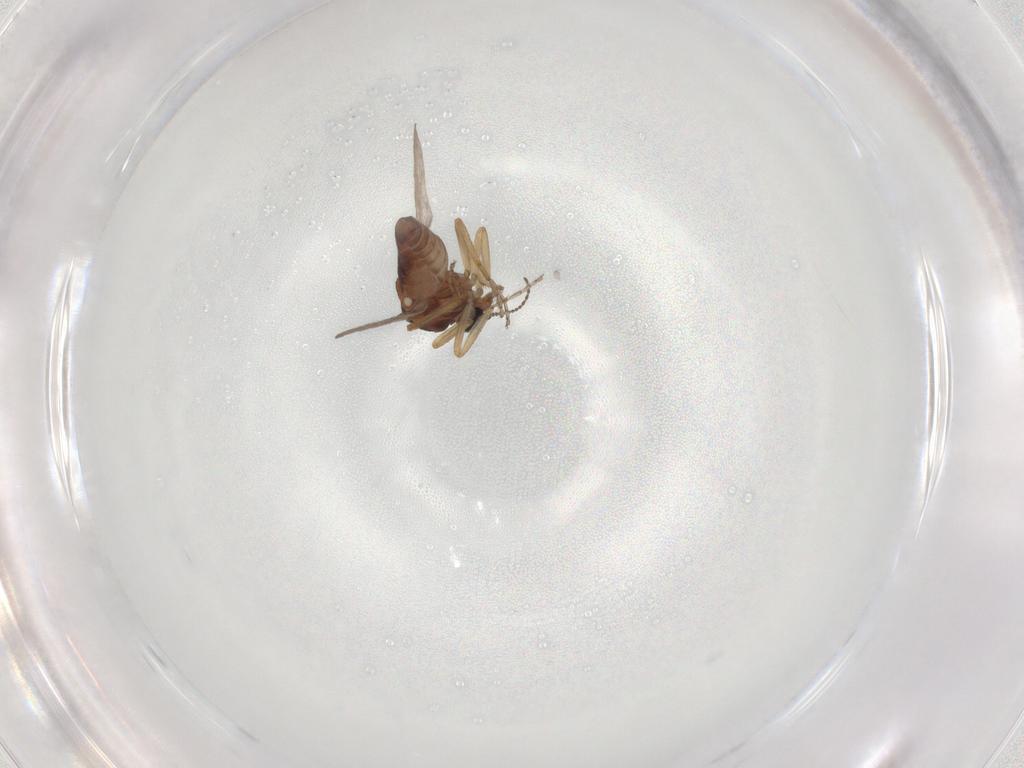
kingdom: Animalia
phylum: Arthropoda
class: Insecta
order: Diptera
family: Ceratopogonidae
